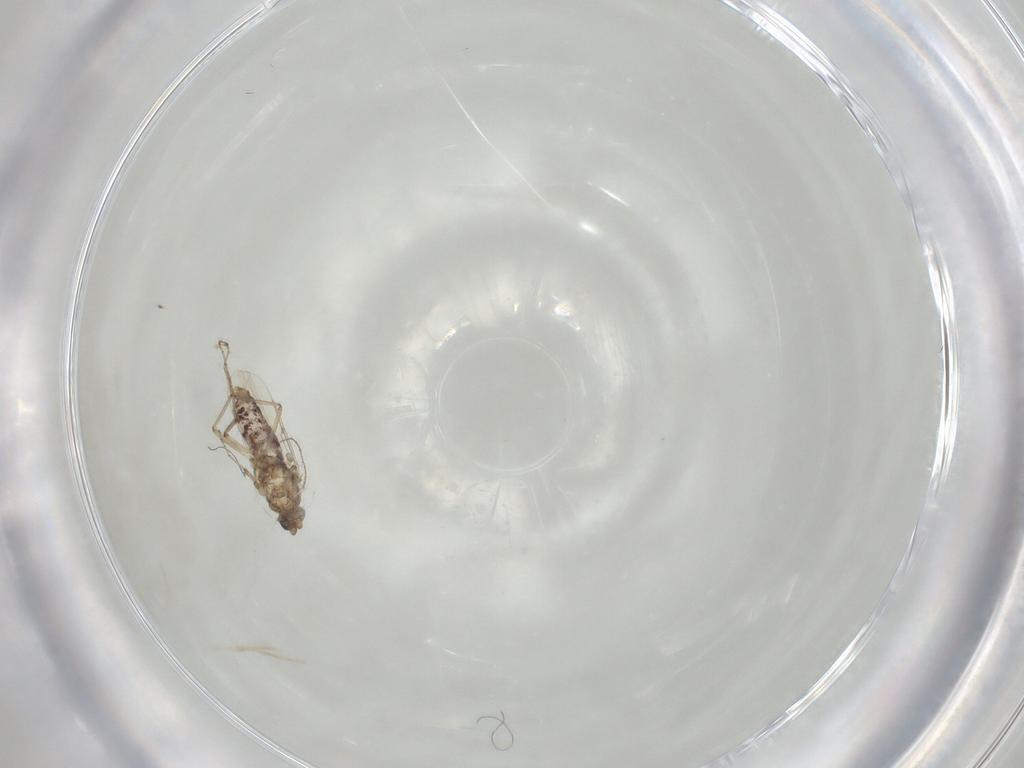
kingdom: Animalia
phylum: Arthropoda
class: Insecta
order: Diptera
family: Ceratopogonidae
